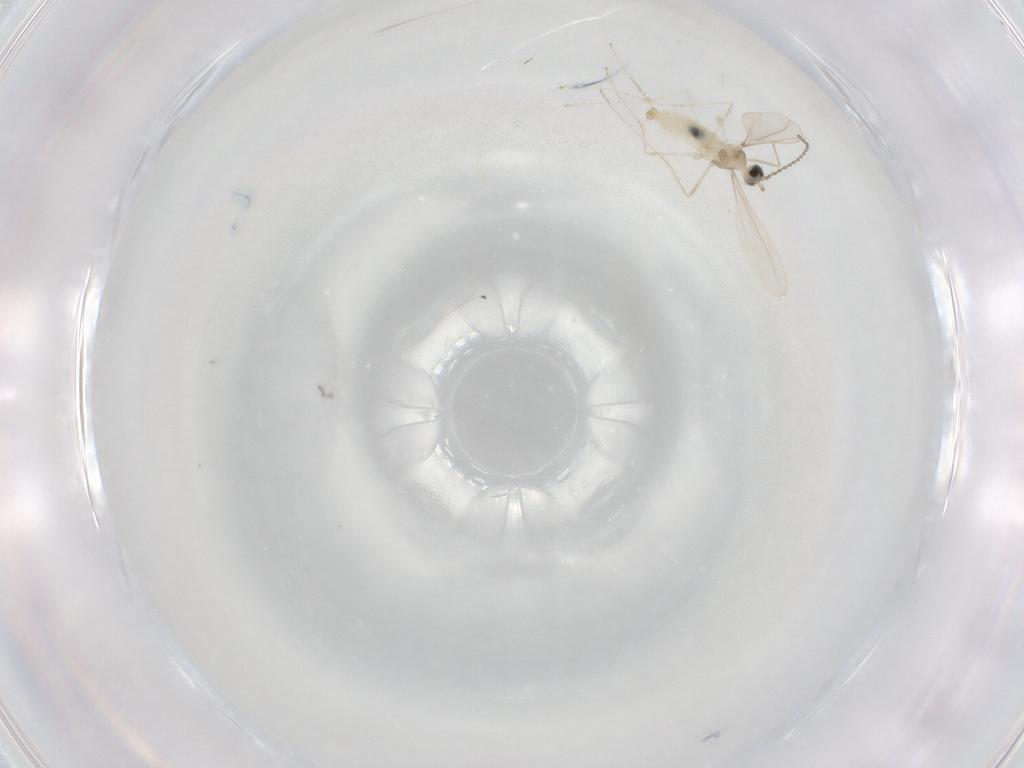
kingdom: Animalia
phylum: Arthropoda
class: Insecta
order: Diptera
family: Cecidomyiidae
